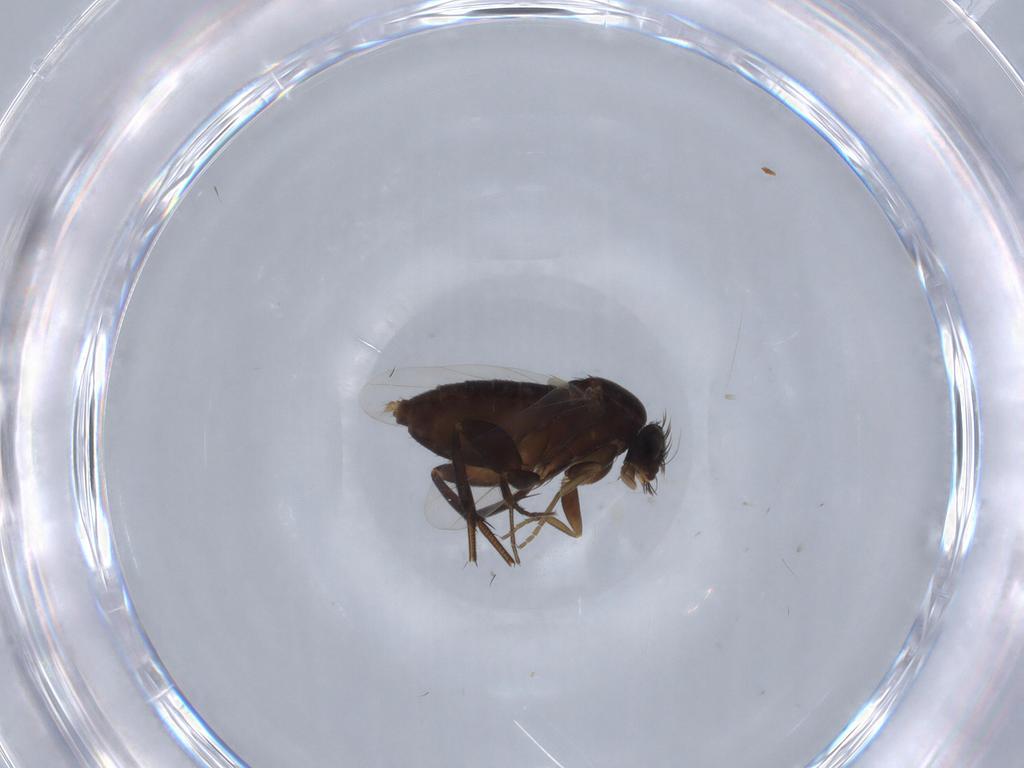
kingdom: Animalia
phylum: Arthropoda
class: Insecta
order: Diptera
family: Phoridae
